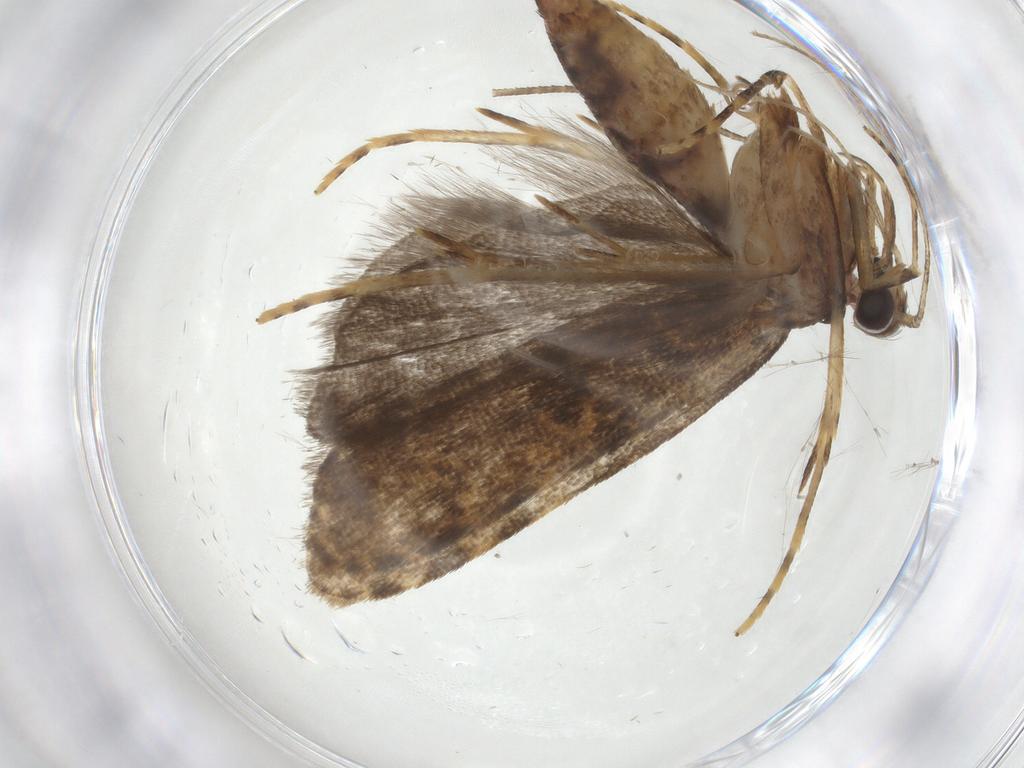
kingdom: Animalia
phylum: Arthropoda
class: Insecta
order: Lepidoptera
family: Autostichidae
